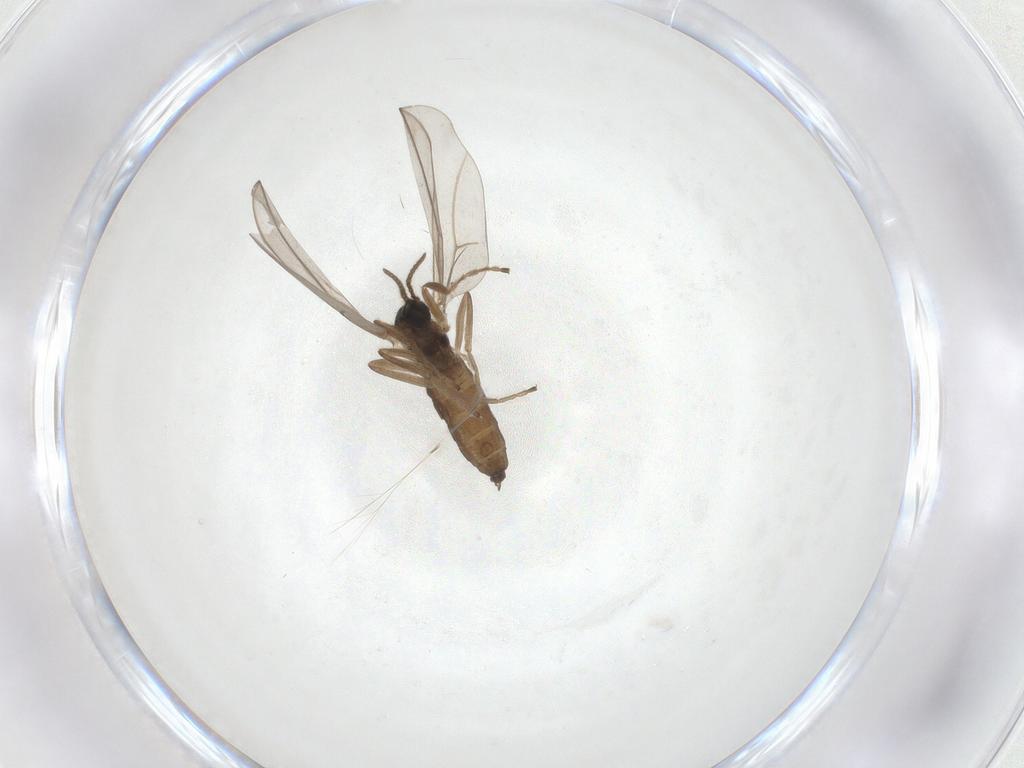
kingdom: Animalia
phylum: Arthropoda
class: Insecta
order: Diptera
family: Cecidomyiidae
